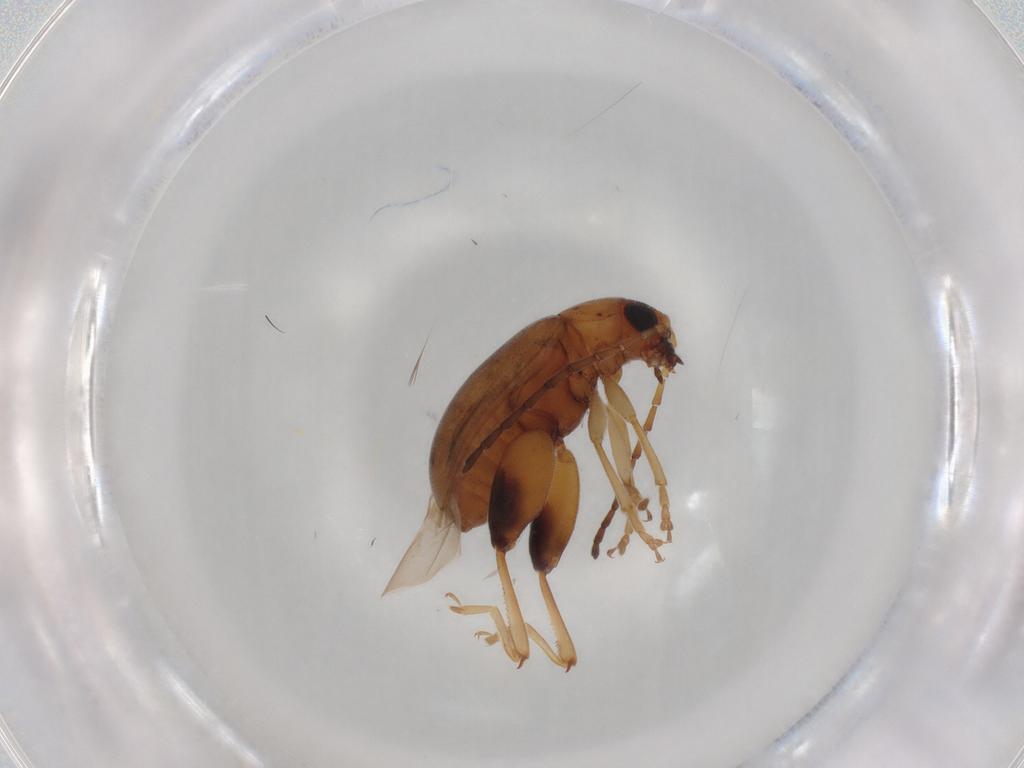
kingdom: Animalia
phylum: Arthropoda
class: Insecta
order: Coleoptera
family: Chrysomelidae
